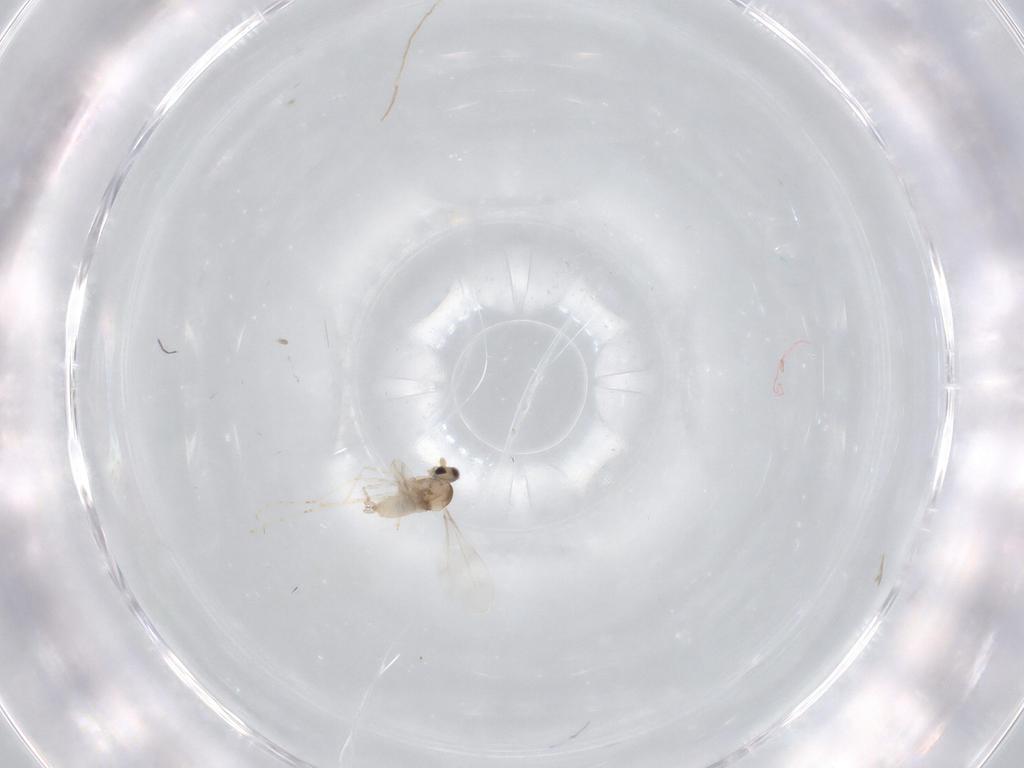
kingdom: Animalia
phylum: Arthropoda
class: Insecta
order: Diptera
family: Cecidomyiidae
